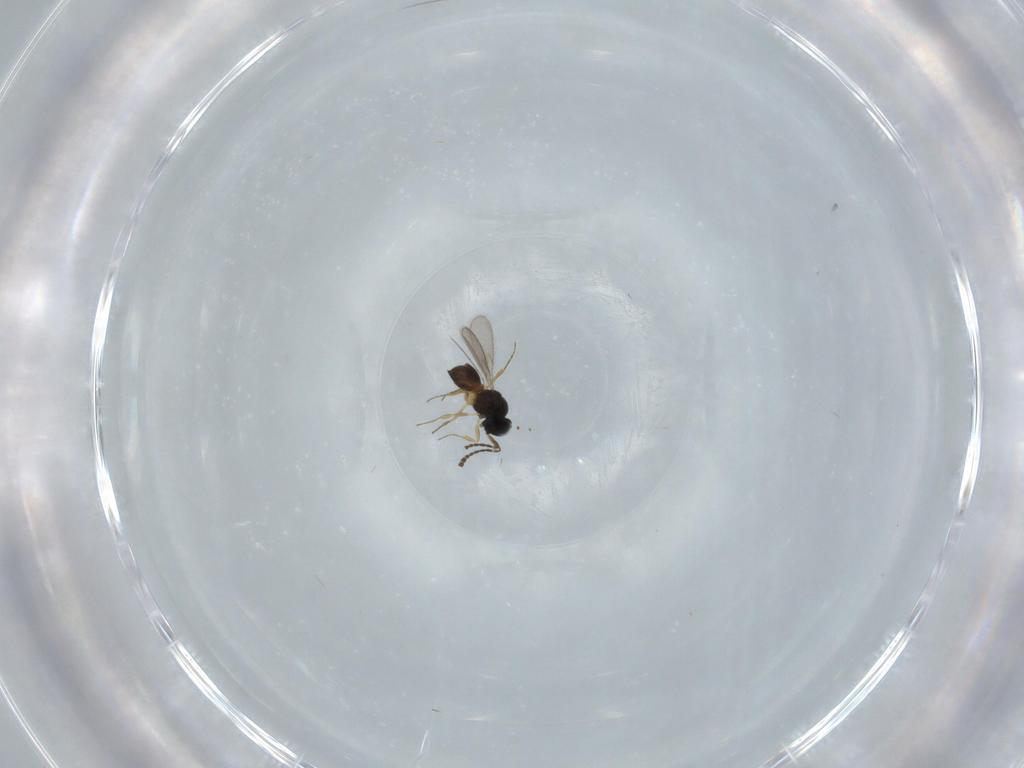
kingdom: Animalia
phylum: Arthropoda
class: Insecta
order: Hymenoptera
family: Scelionidae
